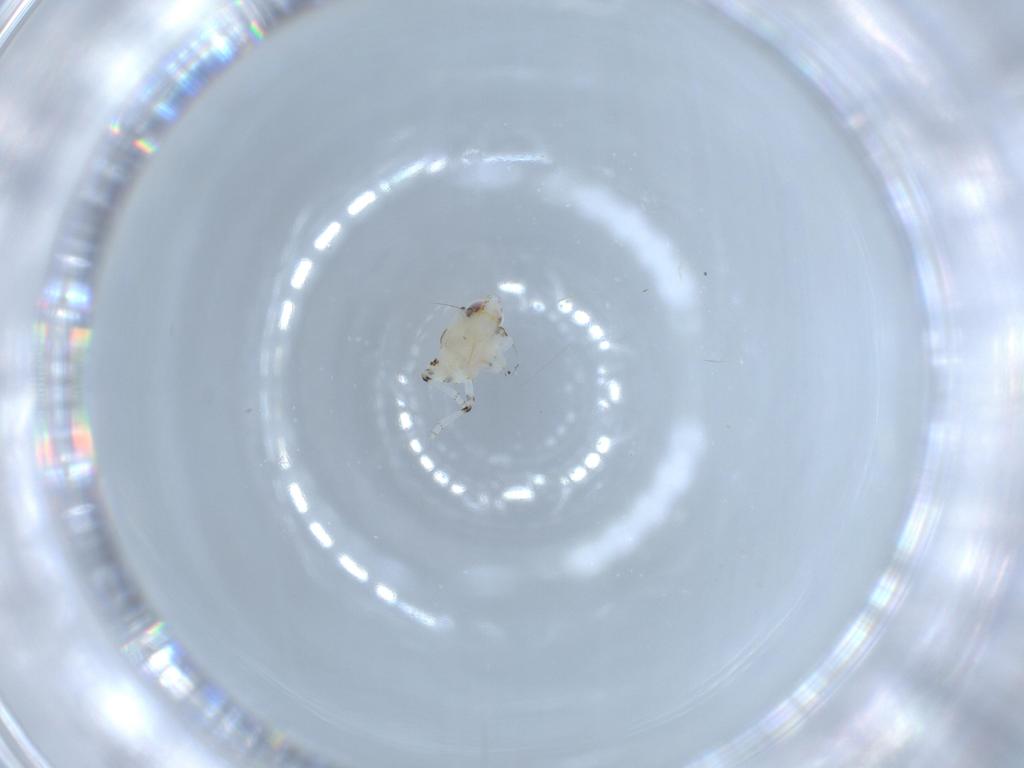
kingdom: Animalia
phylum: Arthropoda
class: Insecta
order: Hemiptera
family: Nogodinidae
